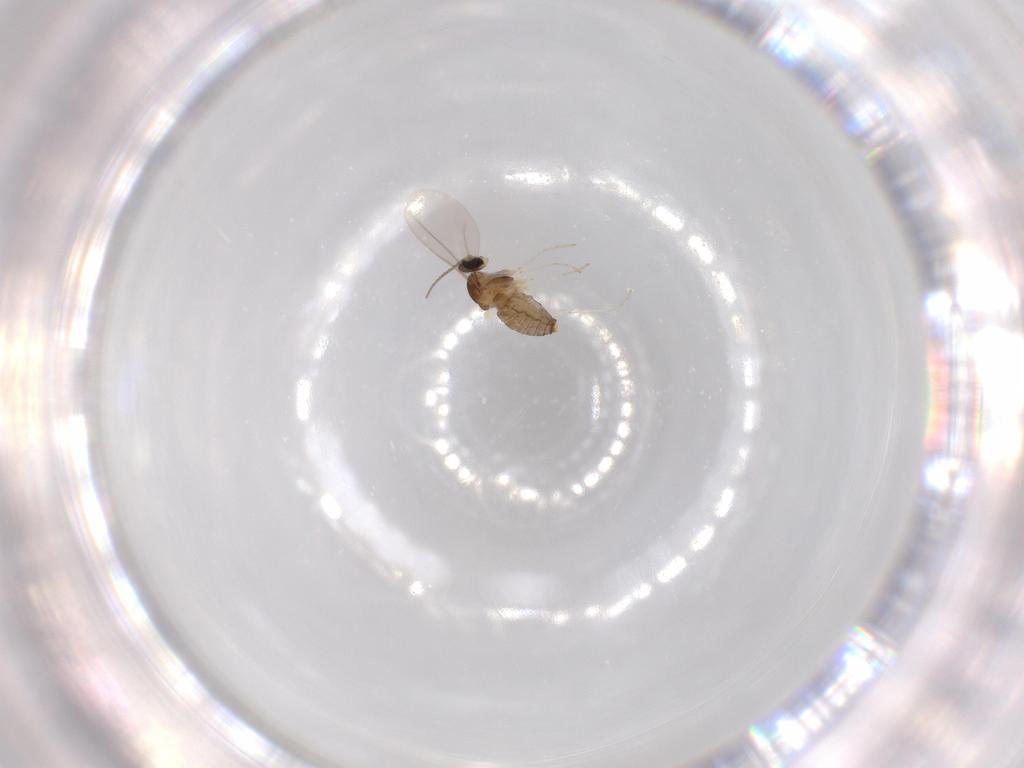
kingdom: Animalia
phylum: Arthropoda
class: Insecta
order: Diptera
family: Cecidomyiidae
